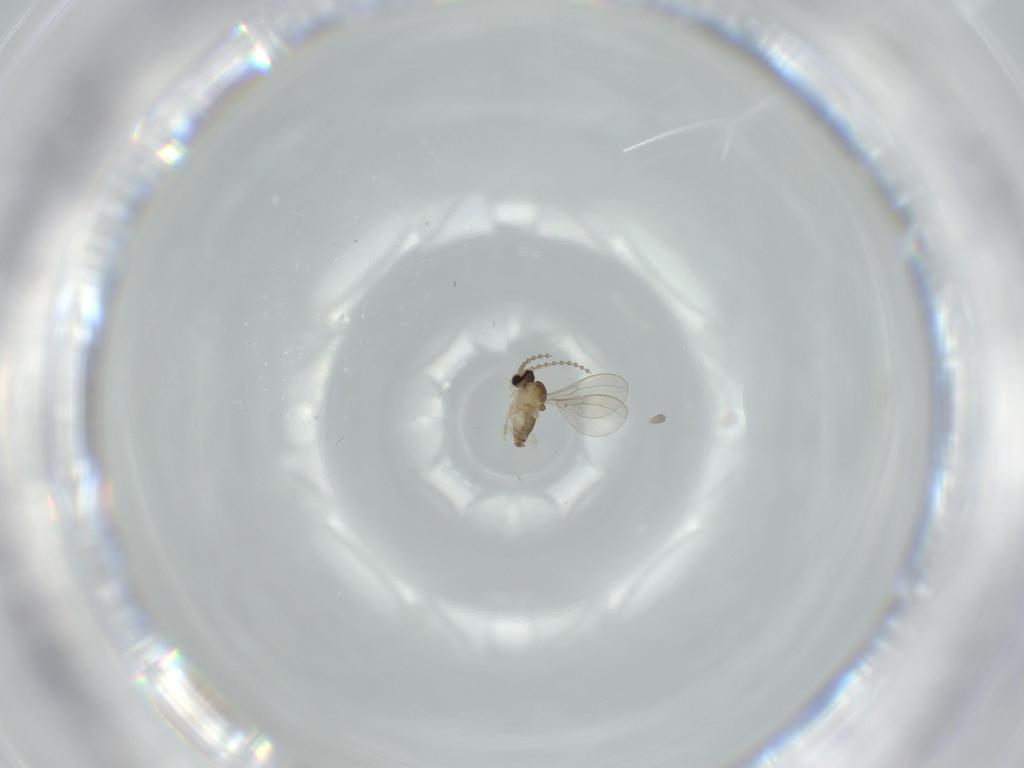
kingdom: Animalia
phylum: Arthropoda
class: Insecta
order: Diptera
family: Cecidomyiidae
